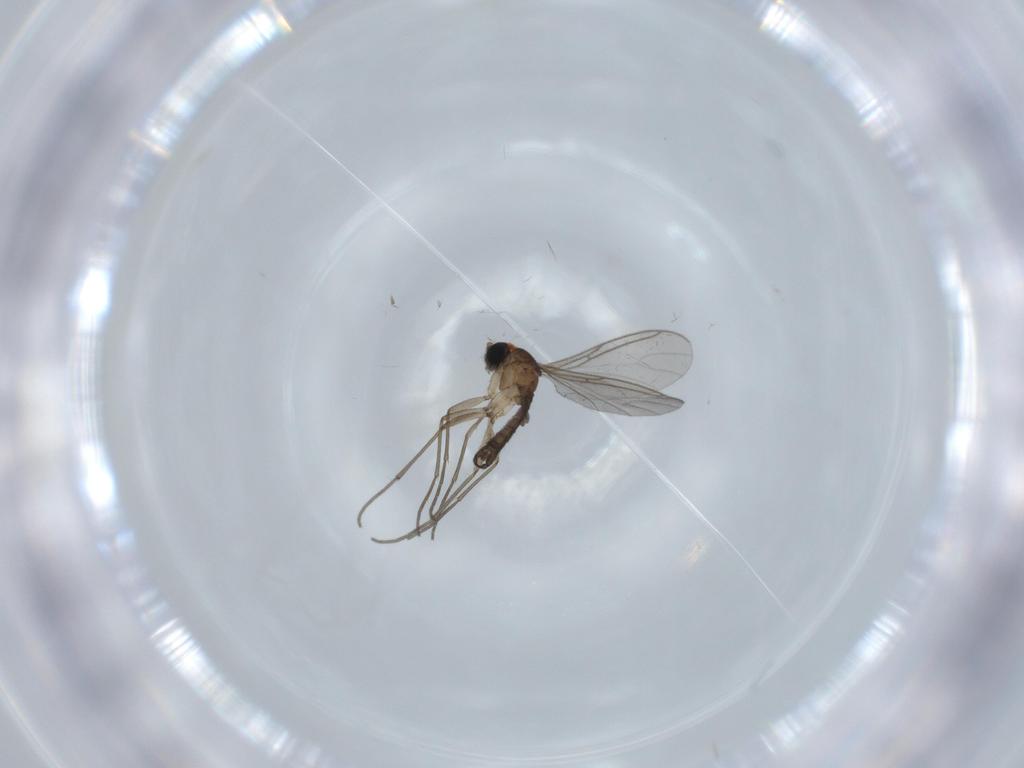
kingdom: Animalia
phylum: Arthropoda
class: Insecta
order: Diptera
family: Sciaridae
